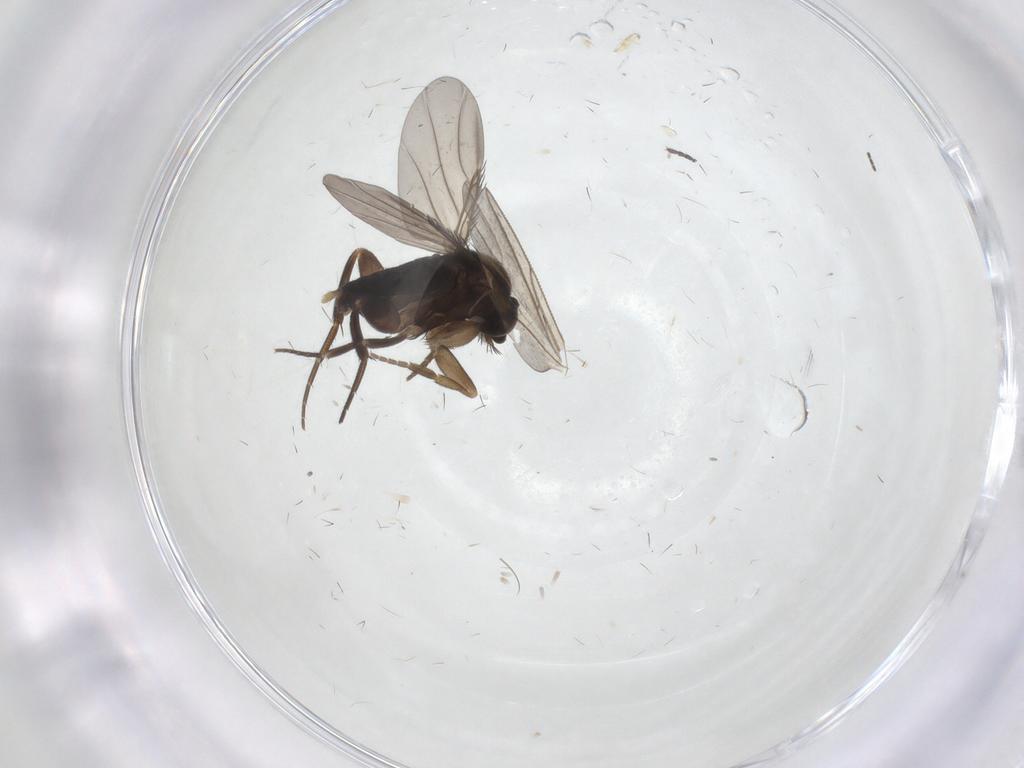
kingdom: Animalia
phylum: Arthropoda
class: Insecta
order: Diptera
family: Phoridae
